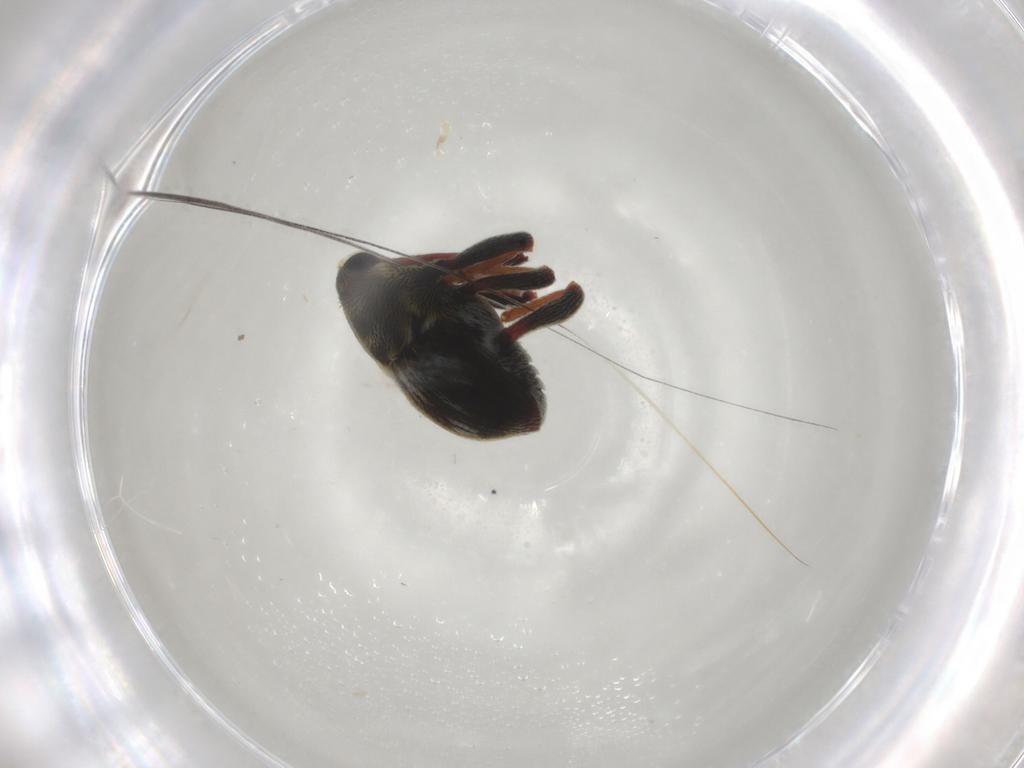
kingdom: Animalia
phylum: Arthropoda
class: Insecta
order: Coleoptera
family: Curculionidae
